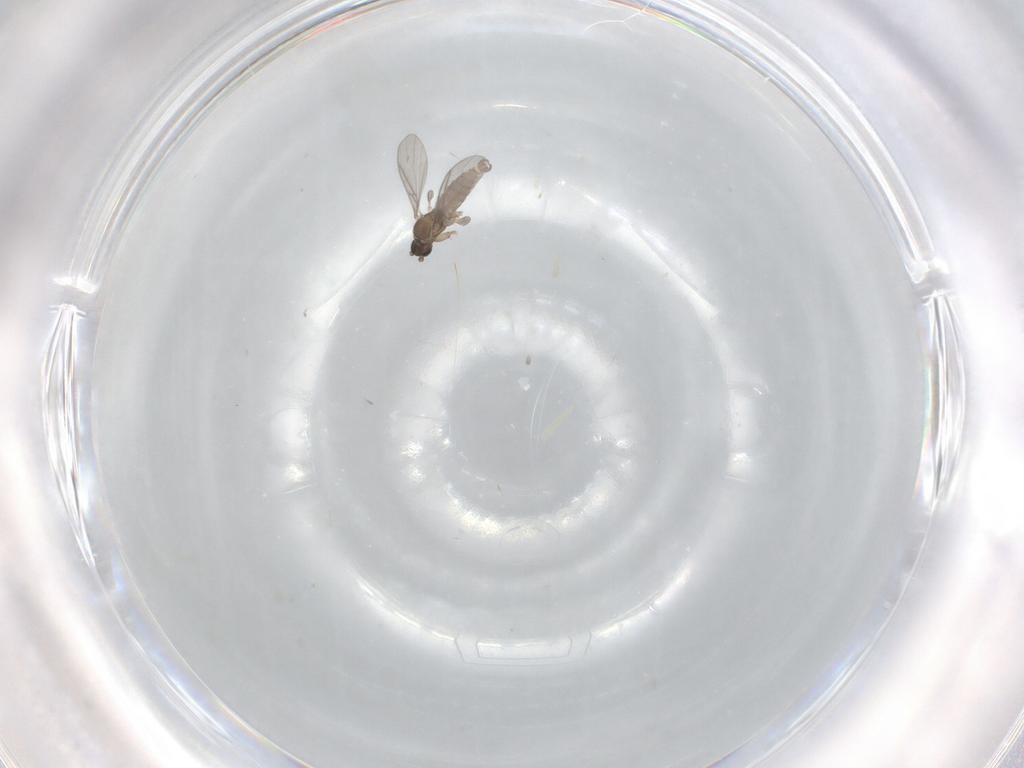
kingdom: Animalia
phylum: Arthropoda
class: Insecta
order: Diptera
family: Sciaridae
